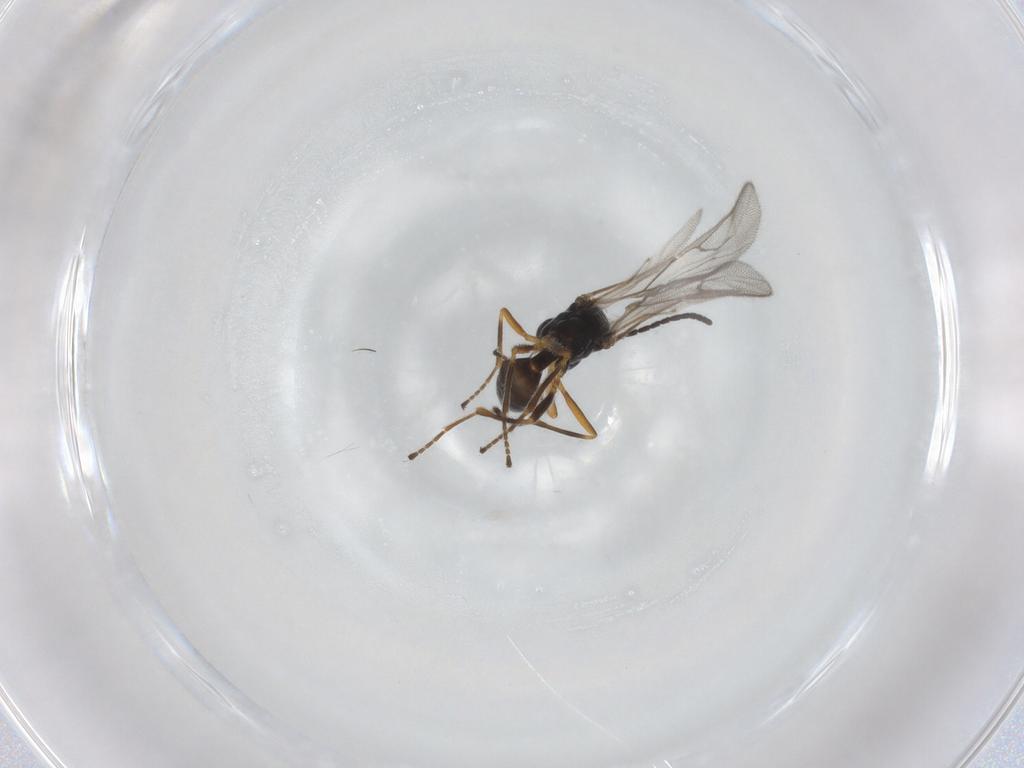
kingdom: Animalia
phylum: Arthropoda
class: Insecta
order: Hymenoptera
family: Braconidae
